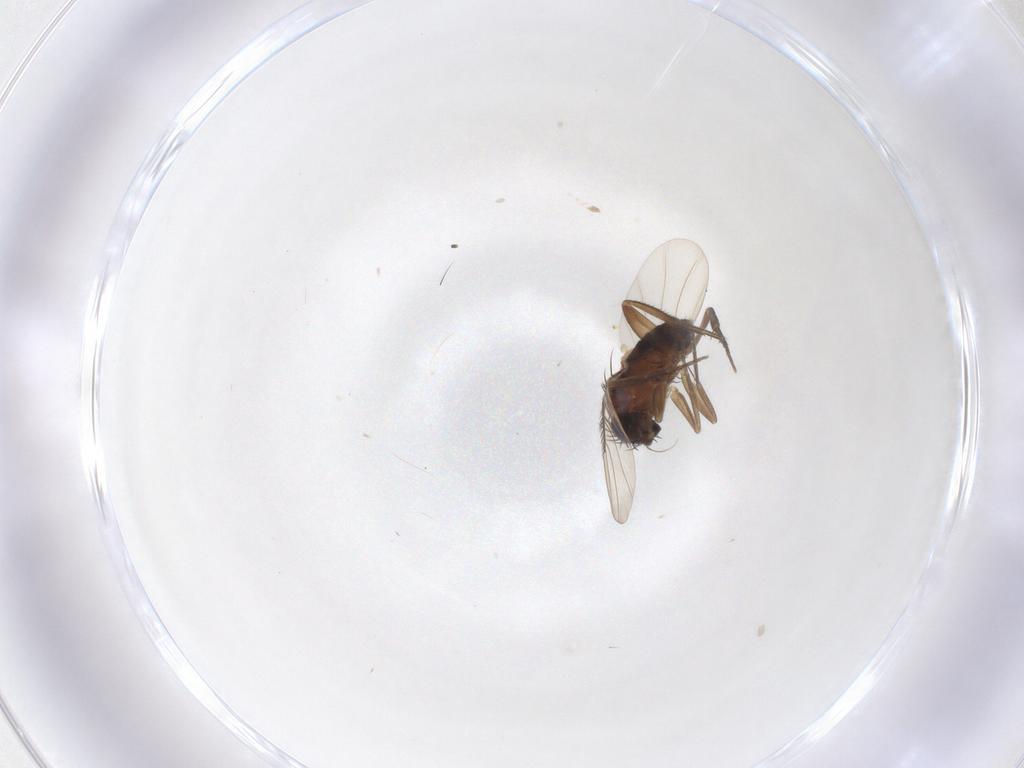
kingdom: Animalia
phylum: Arthropoda
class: Insecta
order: Diptera
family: Phoridae
